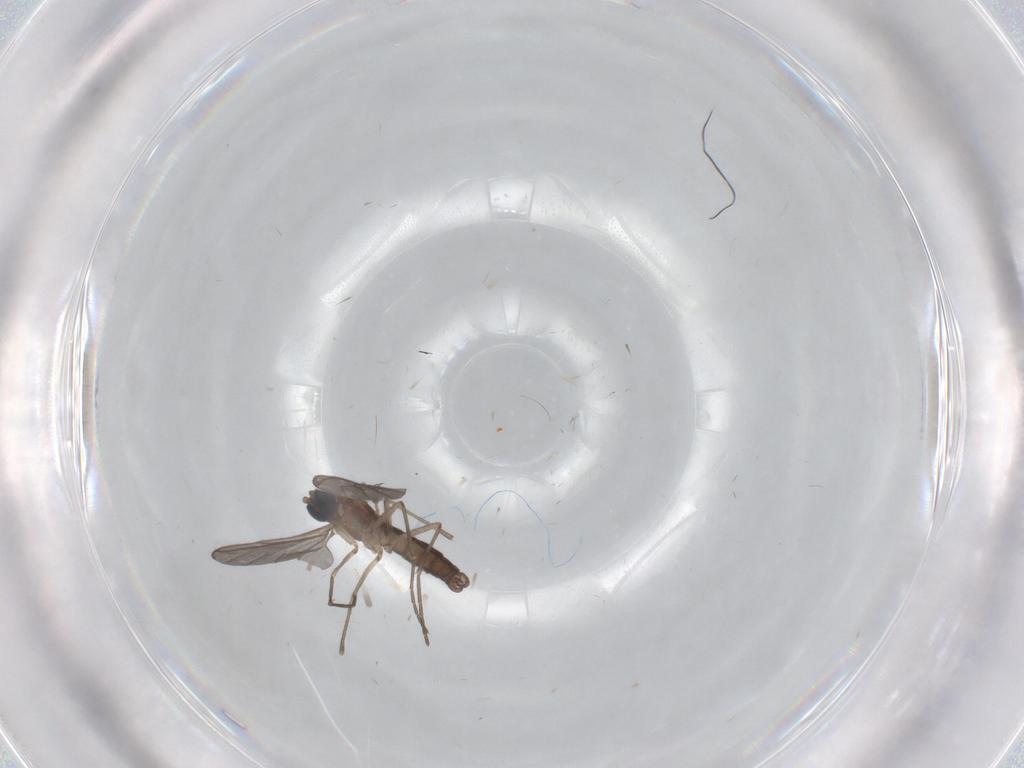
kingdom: Animalia
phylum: Arthropoda
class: Insecta
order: Diptera
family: Sciaridae
